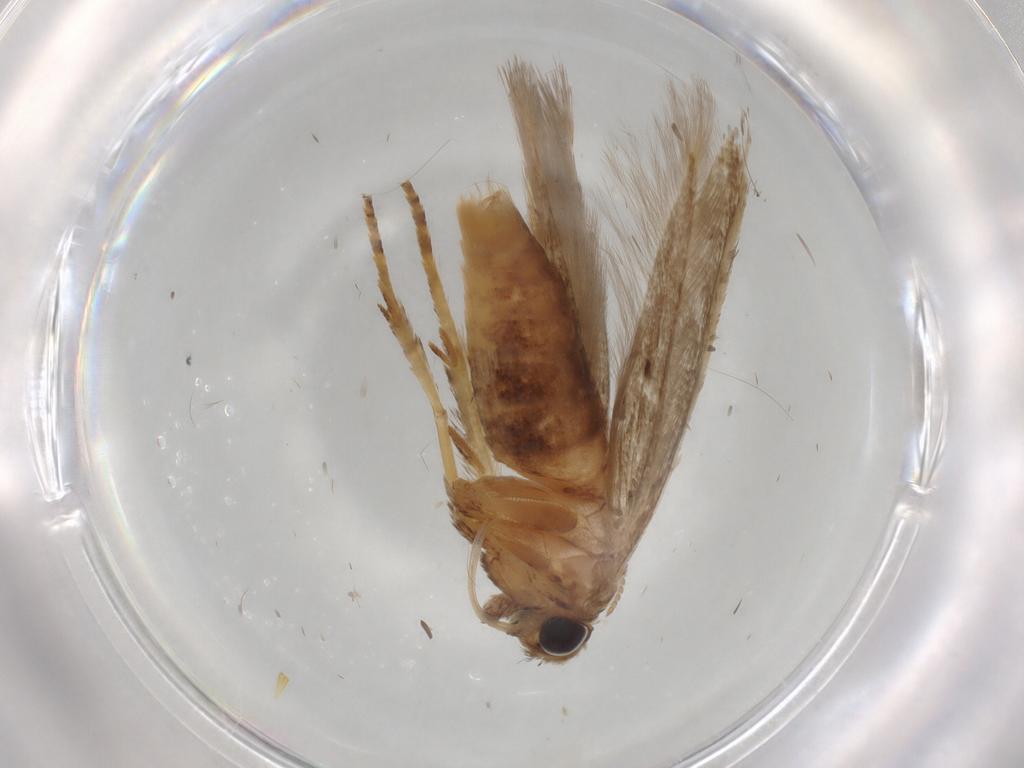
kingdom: Animalia
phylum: Arthropoda
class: Insecta
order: Lepidoptera
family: Blastobasidae
